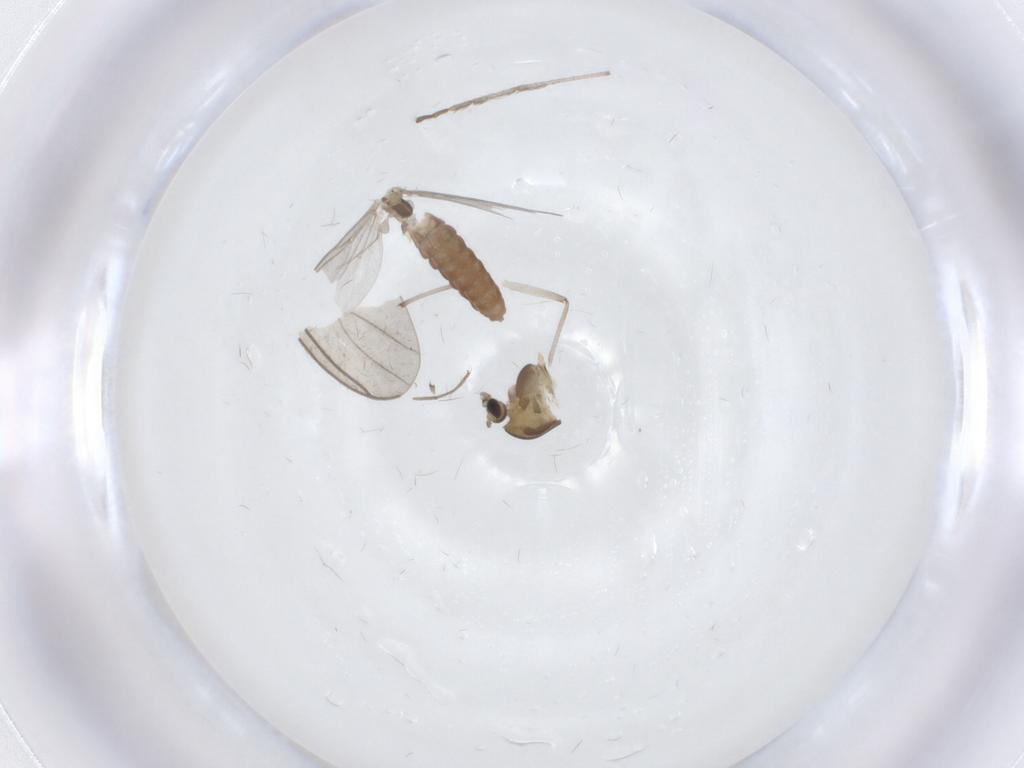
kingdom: Animalia
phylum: Arthropoda
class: Insecta
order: Diptera
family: Chironomidae
